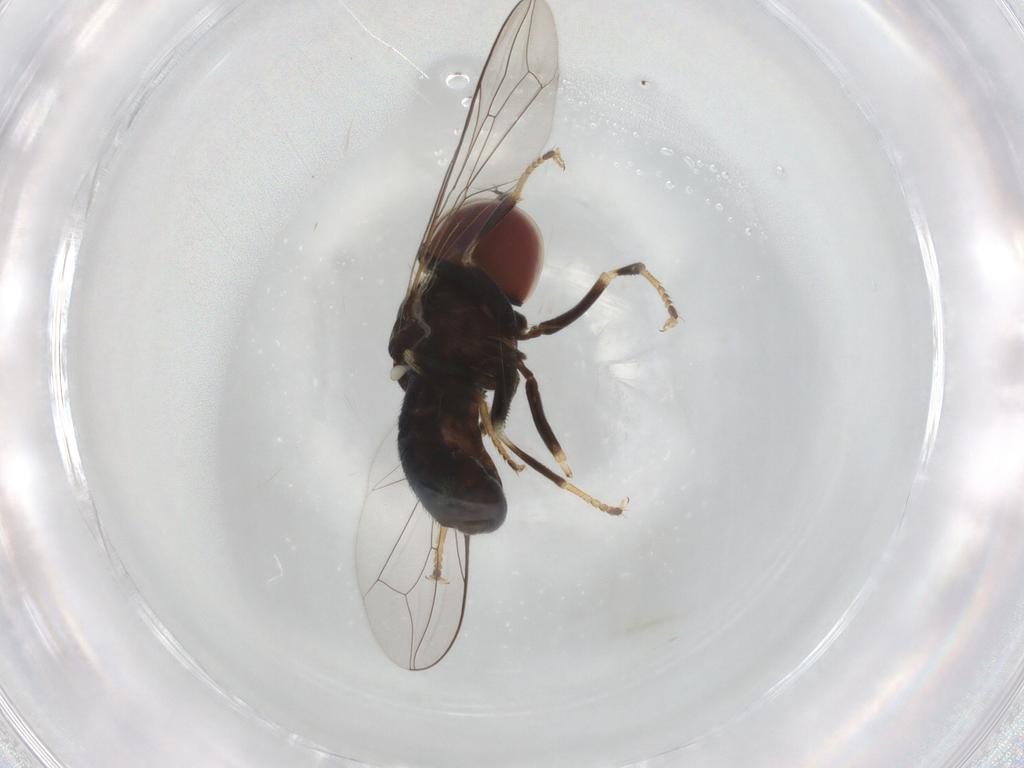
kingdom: Animalia
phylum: Arthropoda
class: Insecta
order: Diptera
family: Pipunculidae
